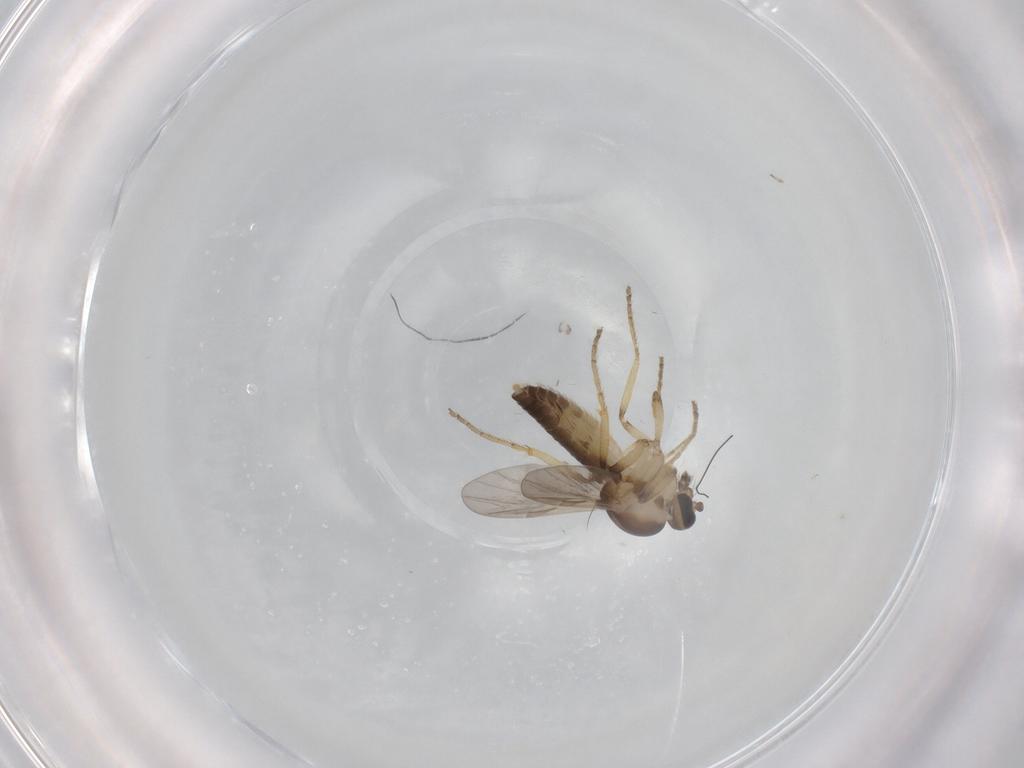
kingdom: Animalia
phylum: Arthropoda
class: Insecta
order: Diptera
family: Ceratopogonidae
